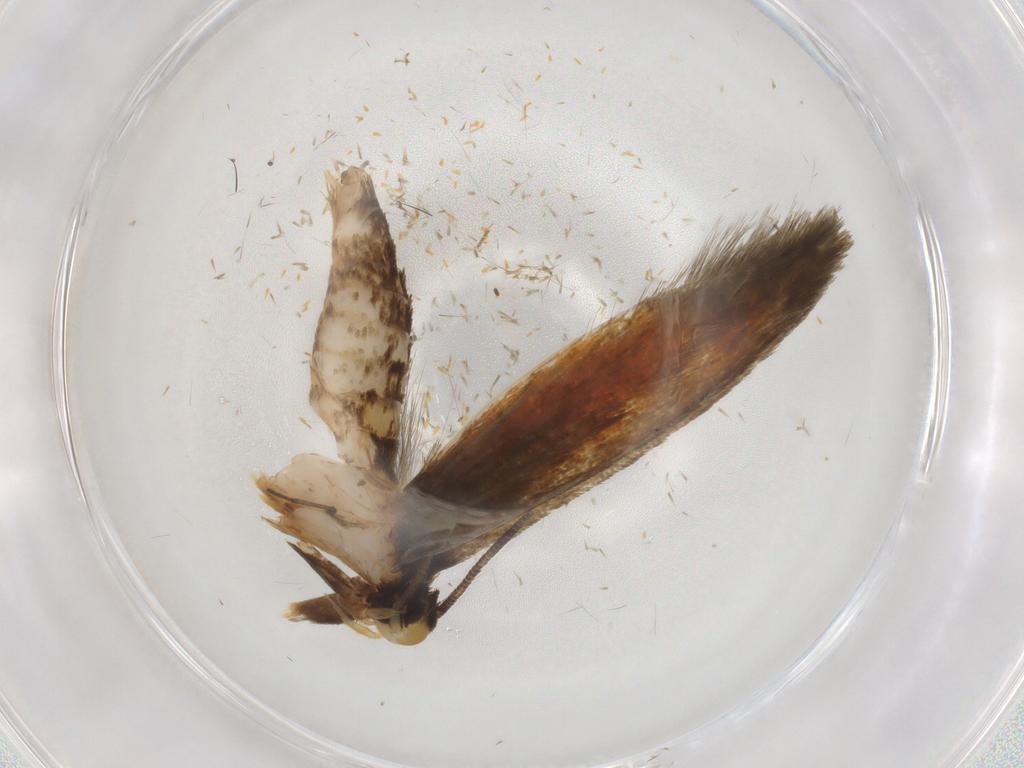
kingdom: Animalia
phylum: Arthropoda
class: Insecta
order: Lepidoptera
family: Tineidae
